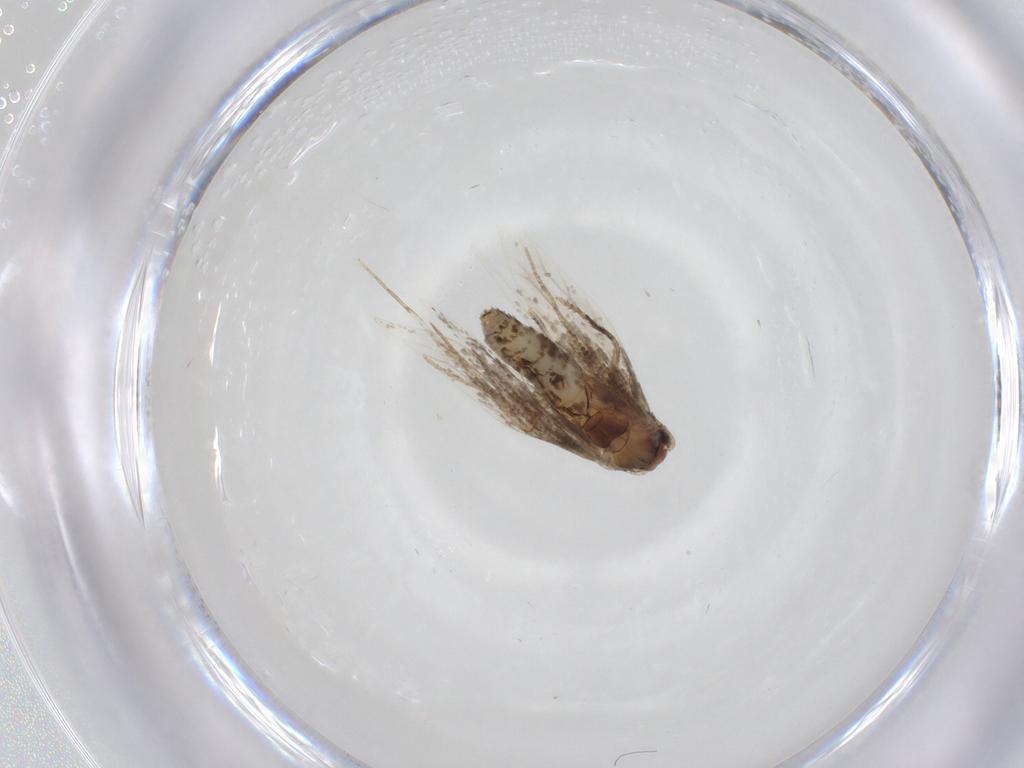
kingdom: Animalia
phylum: Arthropoda
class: Insecta
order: Lepidoptera
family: Tineidae
